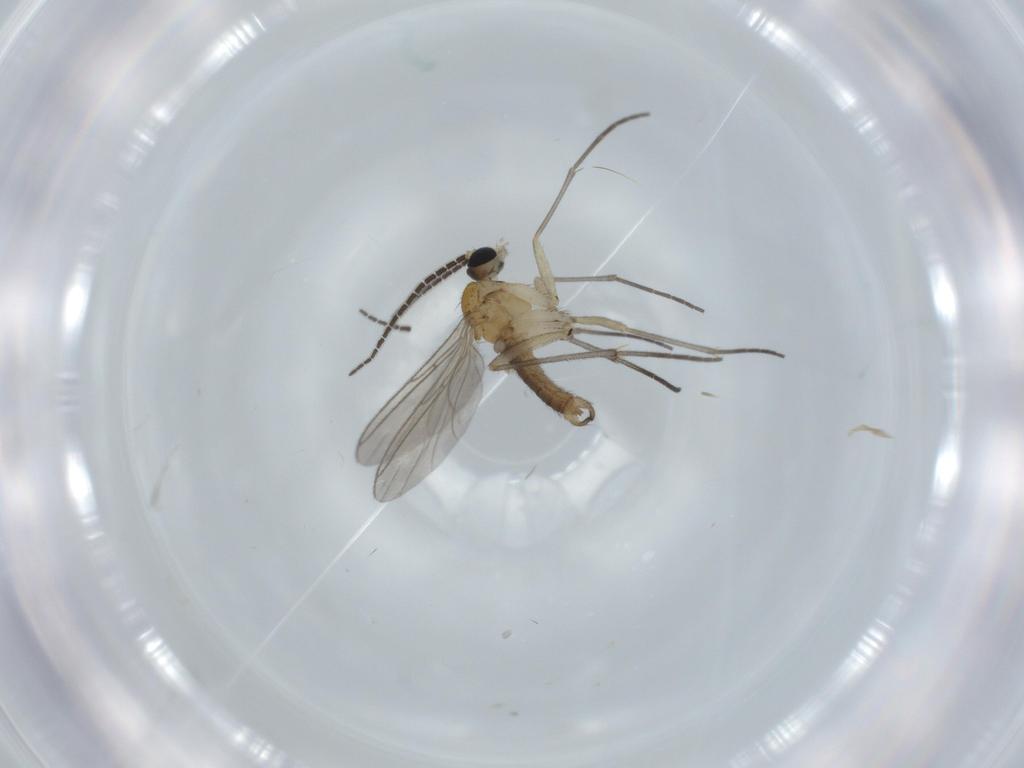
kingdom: Animalia
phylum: Arthropoda
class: Insecta
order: Diptera
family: Sciaridae
